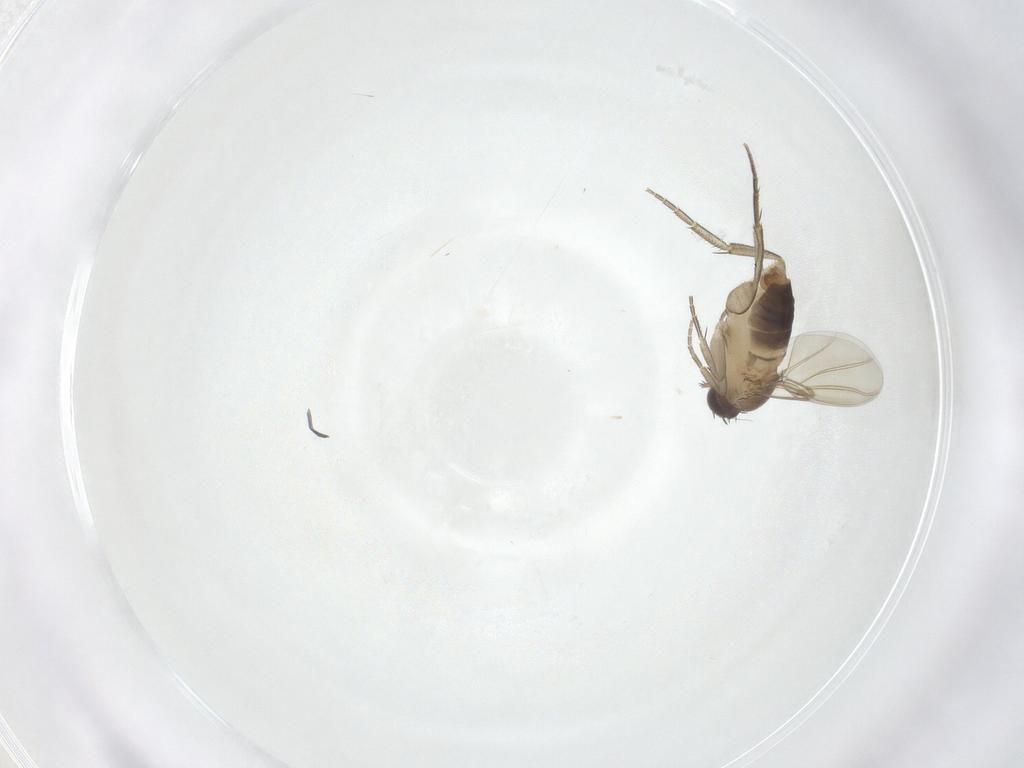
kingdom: Animalia
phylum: Arthropoda
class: Insecta
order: Diptera
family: Phoridae
